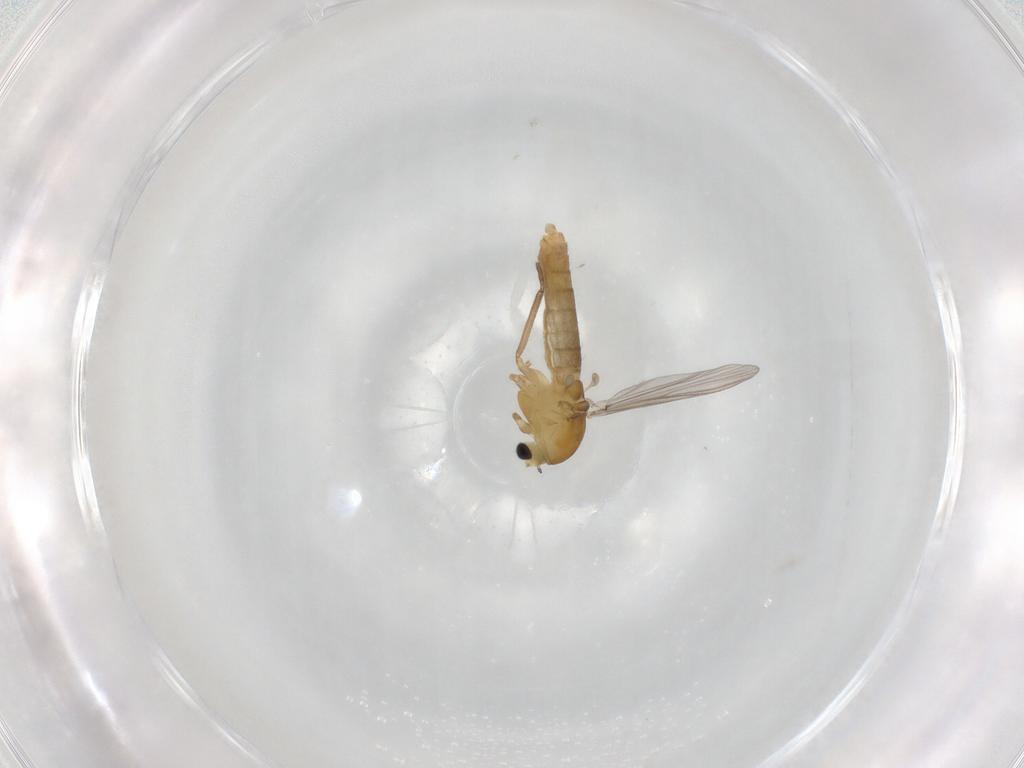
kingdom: Animalia
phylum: Arthropoda
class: Insecta
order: Diptera
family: Chironomidae
